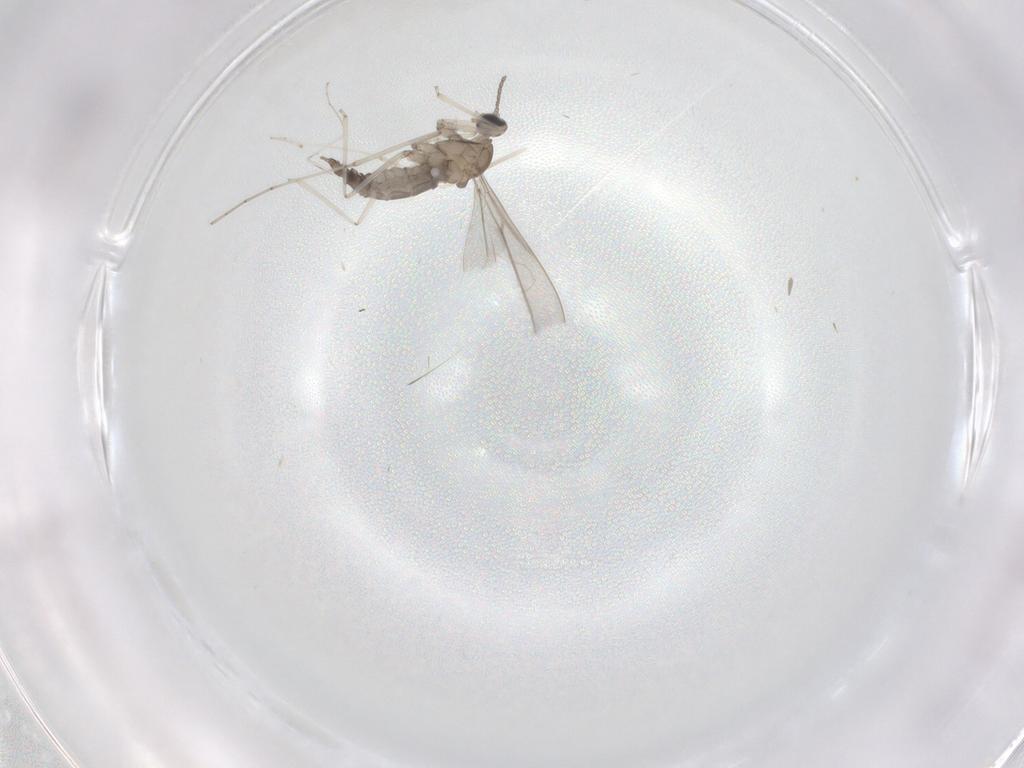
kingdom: Animalia
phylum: Arthropoda
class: Insecta
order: Diptera
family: Cecidomyiidae
